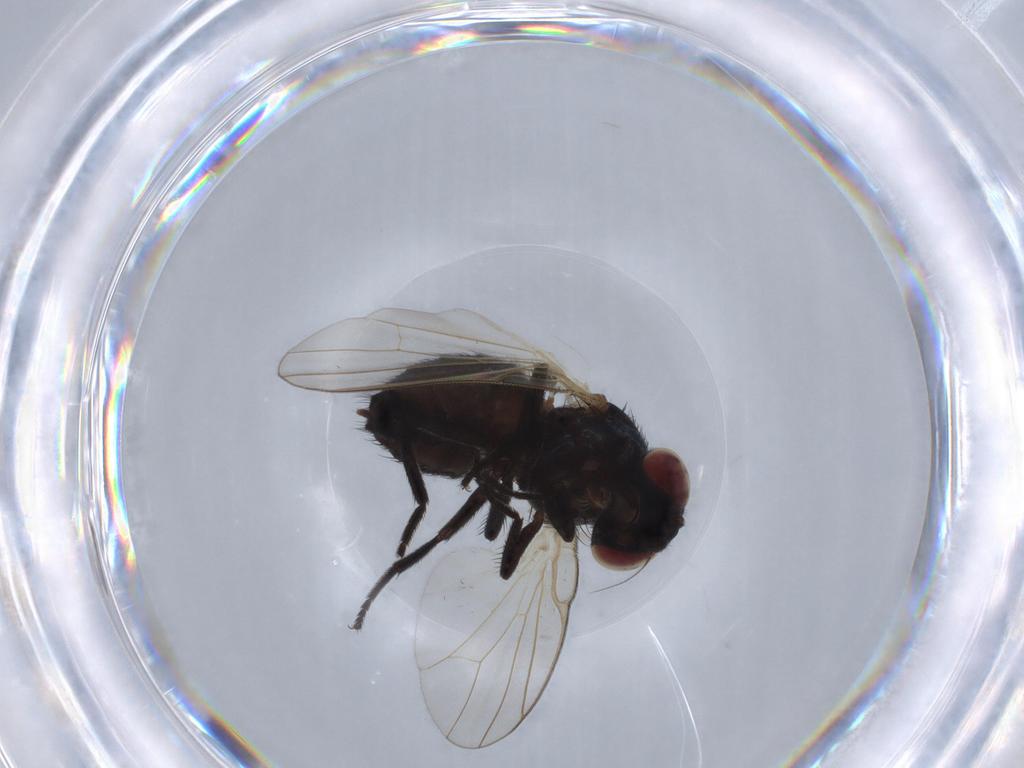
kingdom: Animalia
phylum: Arthropoda
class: Insecta
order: Diptera
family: Lonchaeidae
